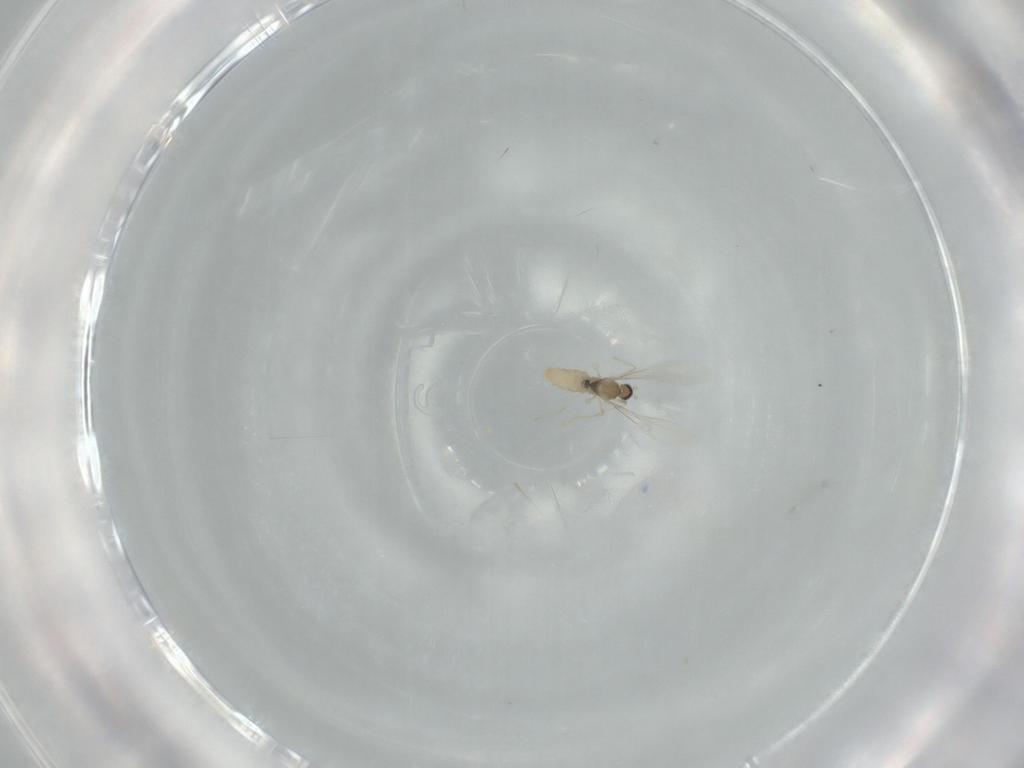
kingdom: Animalia
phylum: Arthropoda
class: Insecta
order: Diptera
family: Cecidomyiidae
